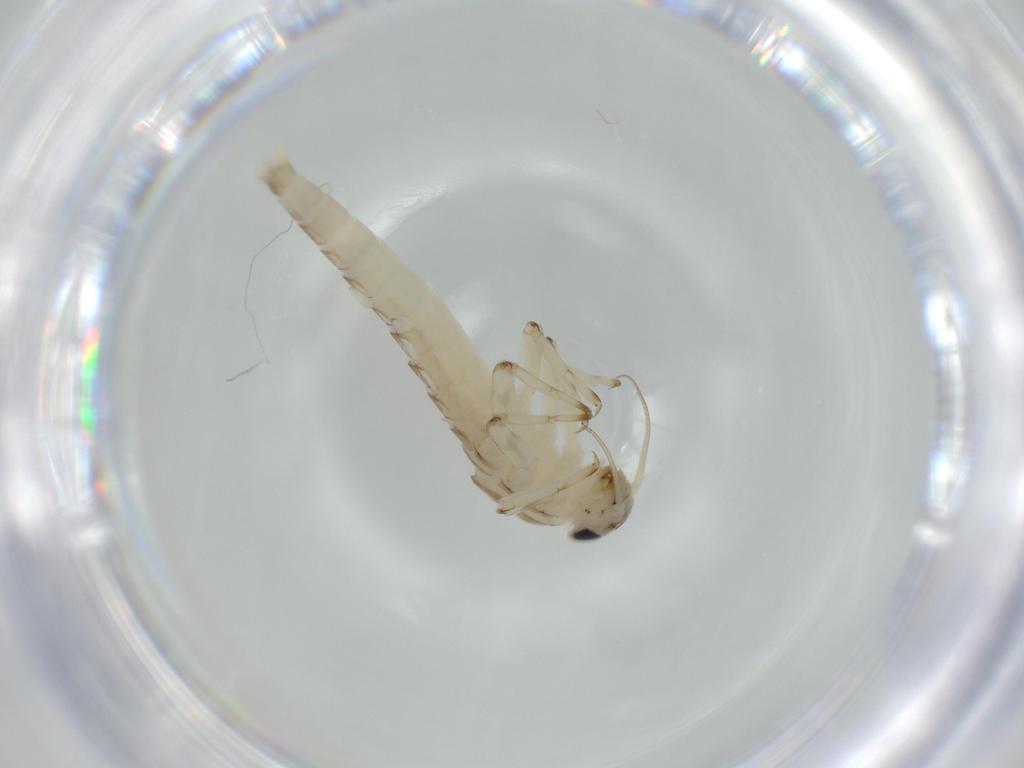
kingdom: Animalia
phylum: Arthropoda
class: Insecta
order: Ephemeroptera
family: Baetidae
